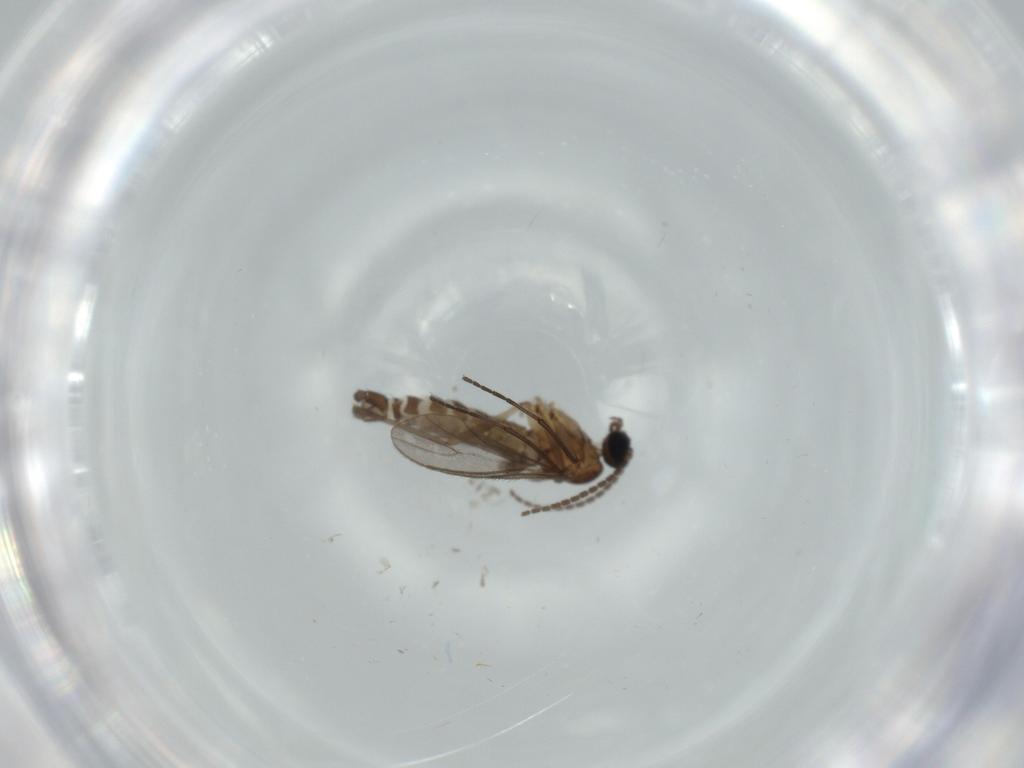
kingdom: Animalia
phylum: Arthropoda
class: Insecta
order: Diptera
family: Sciaridae
